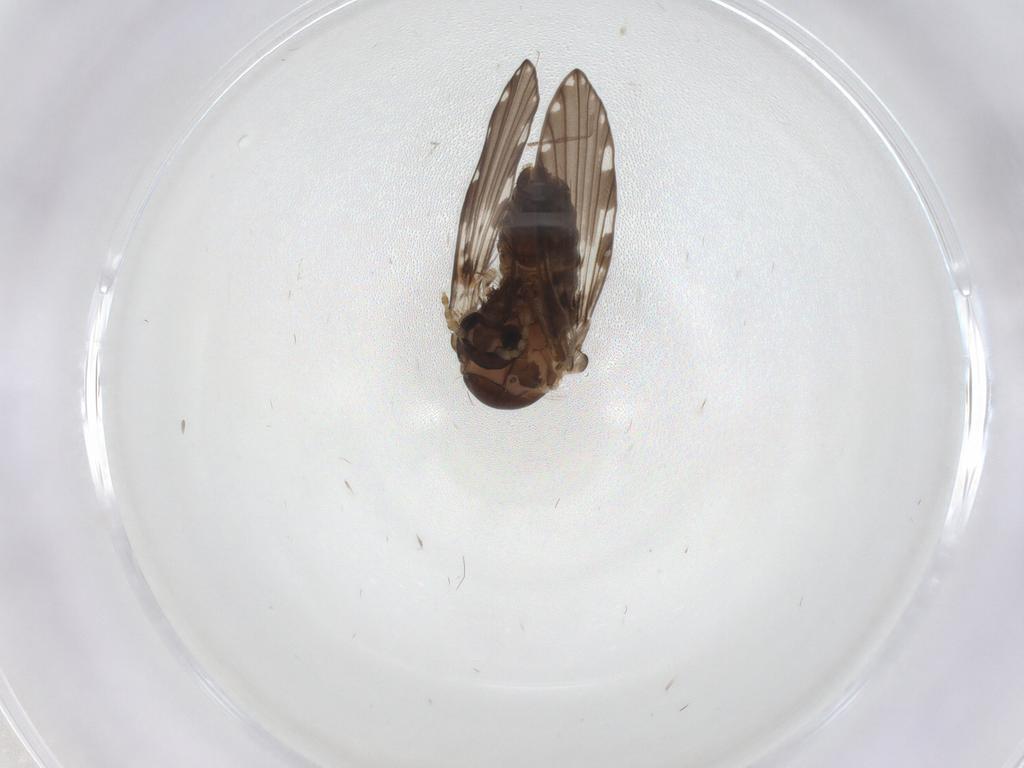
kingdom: Animalia
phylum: Arthropoda
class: Insecta
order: Diptera
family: Psychodidae
